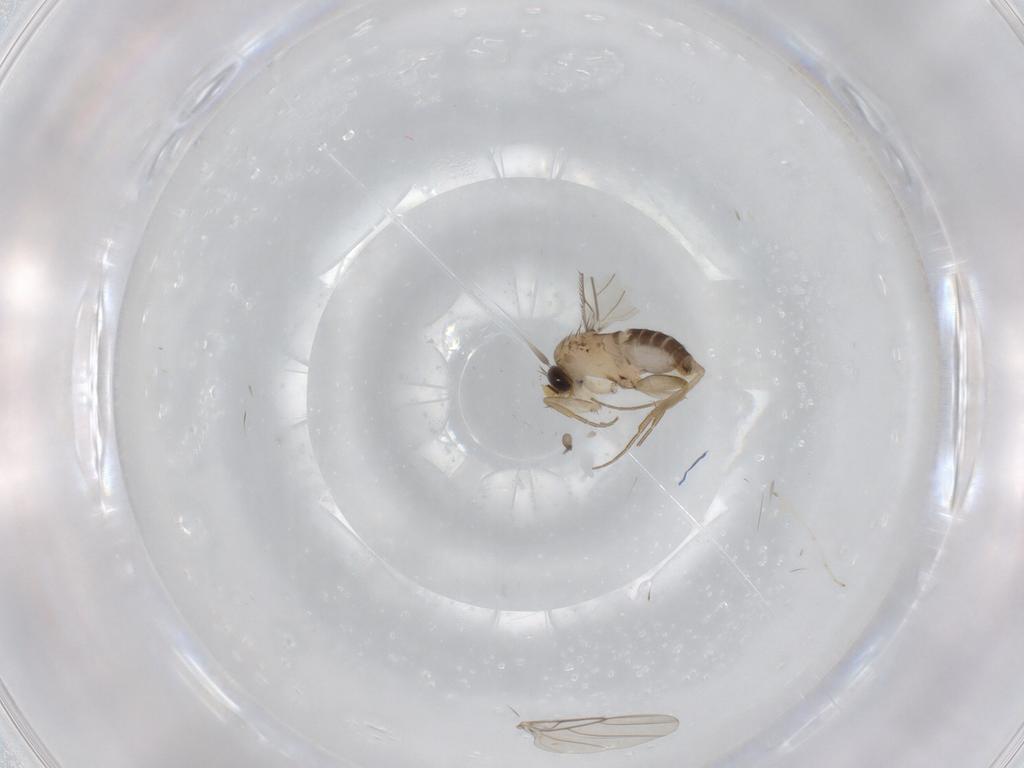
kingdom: Animalia
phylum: Arthropoda
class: Insecta
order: Diptera
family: Phoridae
